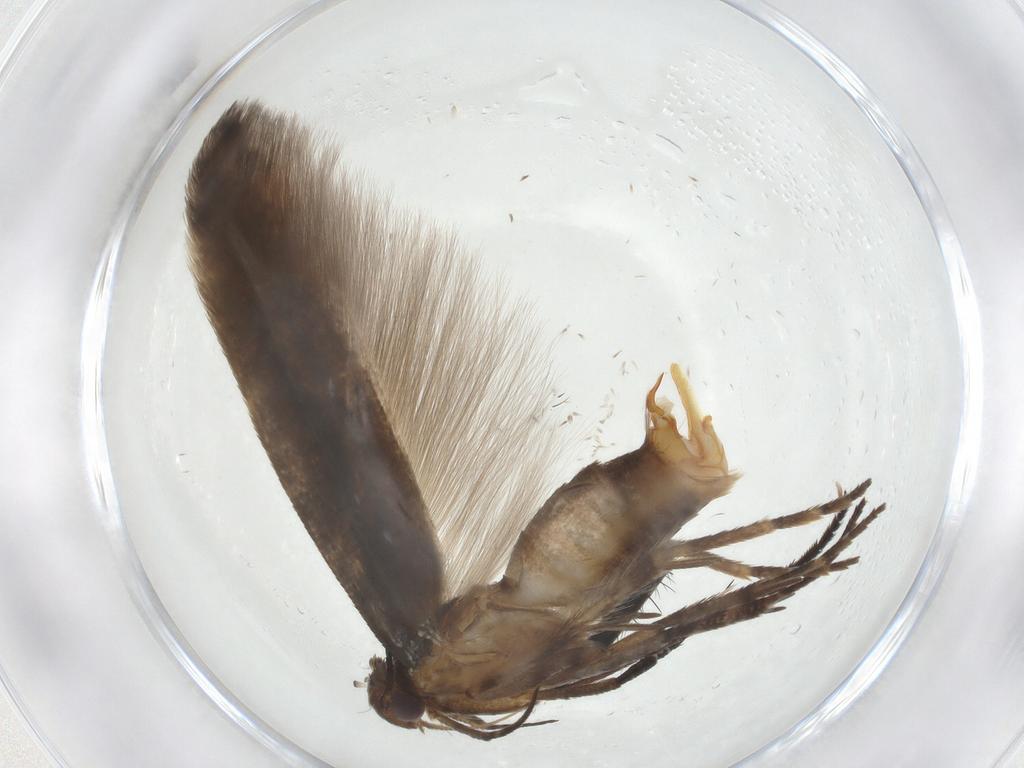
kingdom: Animalia
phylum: Arthropoda
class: Insecta
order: Lepidoptera
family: Gelechiidae
